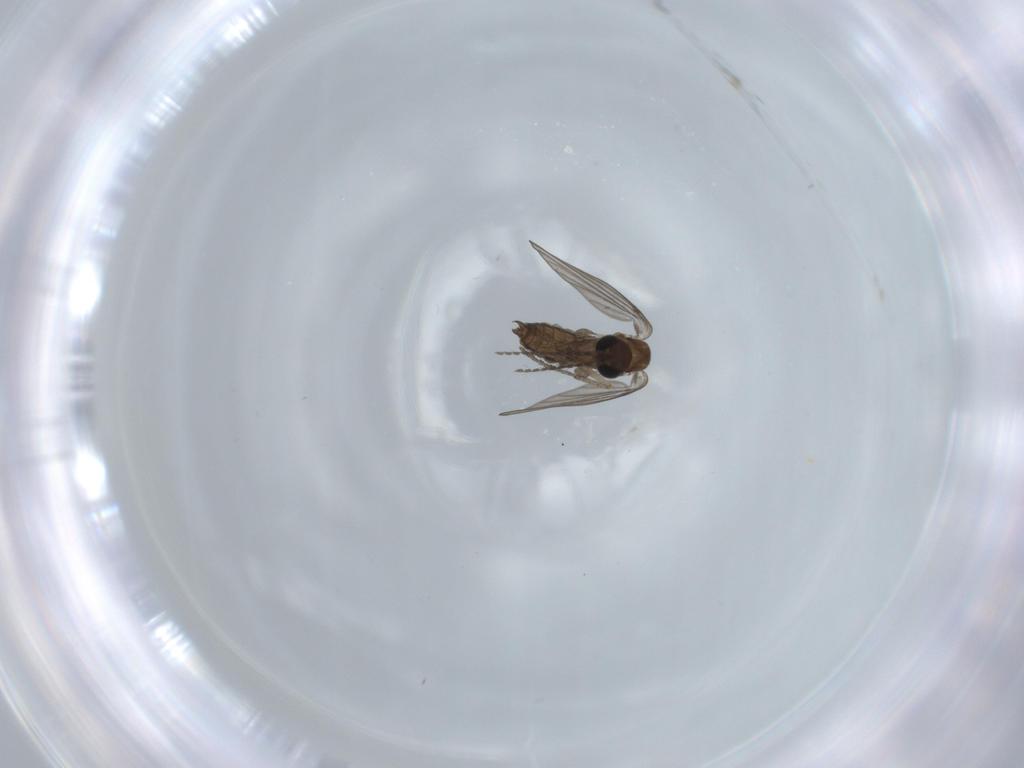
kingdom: Animalia
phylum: Arthropoda
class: Insecta
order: Diptera
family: Psychodidae
